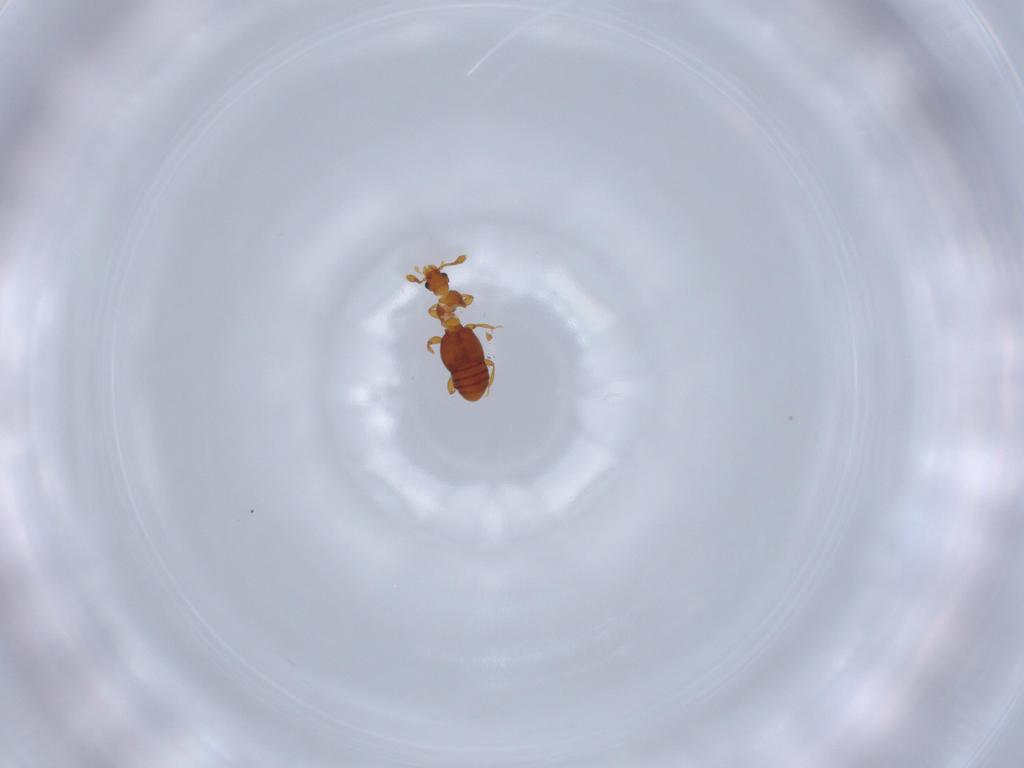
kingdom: Animalia
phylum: Arthropoda
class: Insecta
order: Coleoptera
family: Staphylinidae
